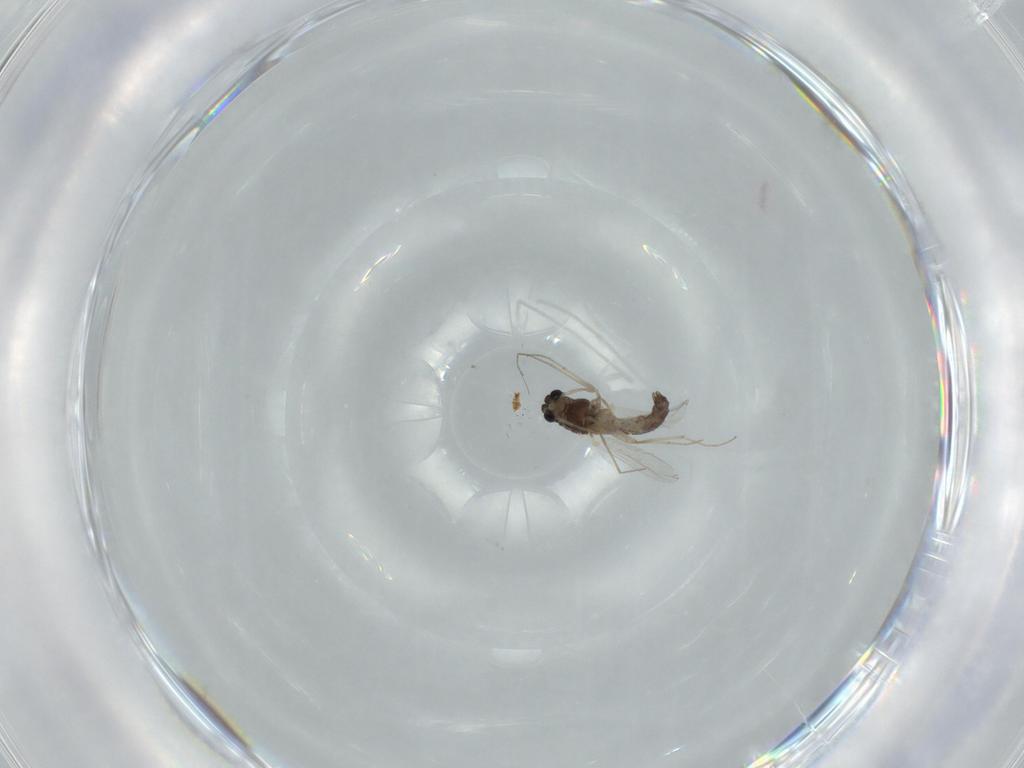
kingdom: Animalia
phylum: Arthropoda
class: Insecta
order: Diptera
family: Chironomidae
